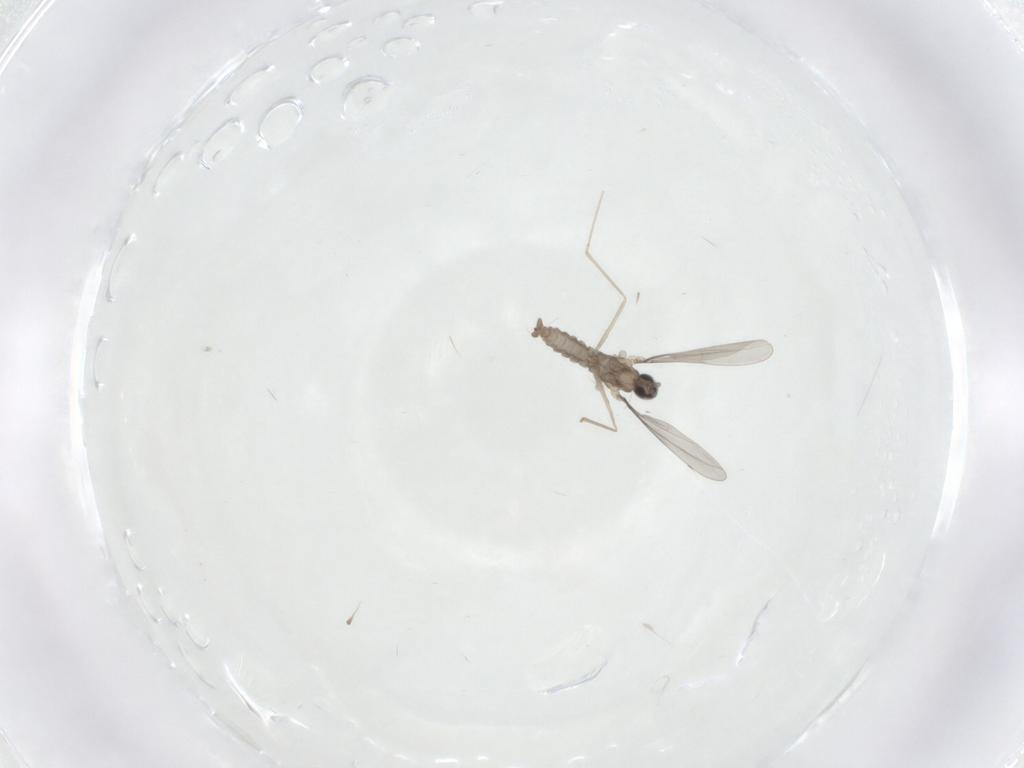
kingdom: Animalia
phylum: Arthropoda
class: Insecta
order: Diptera
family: Cecidomyiidae
